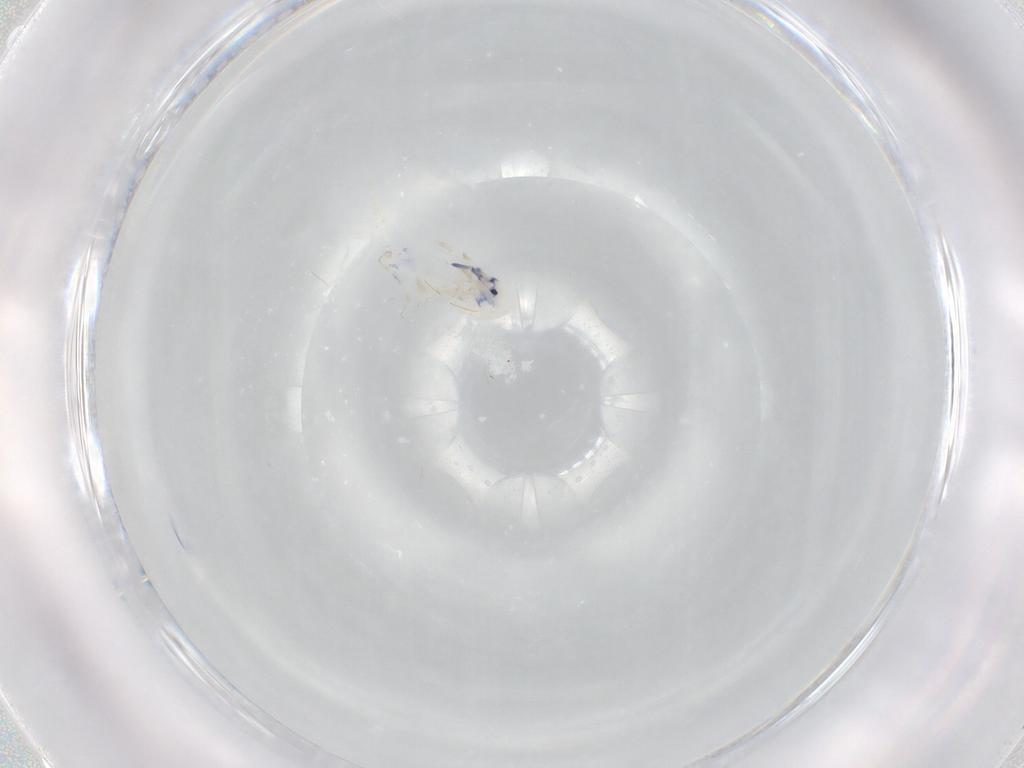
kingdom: Animalia
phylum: Arthropoda
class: Collembola
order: Entomobryomorpha
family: Entomobryidae
